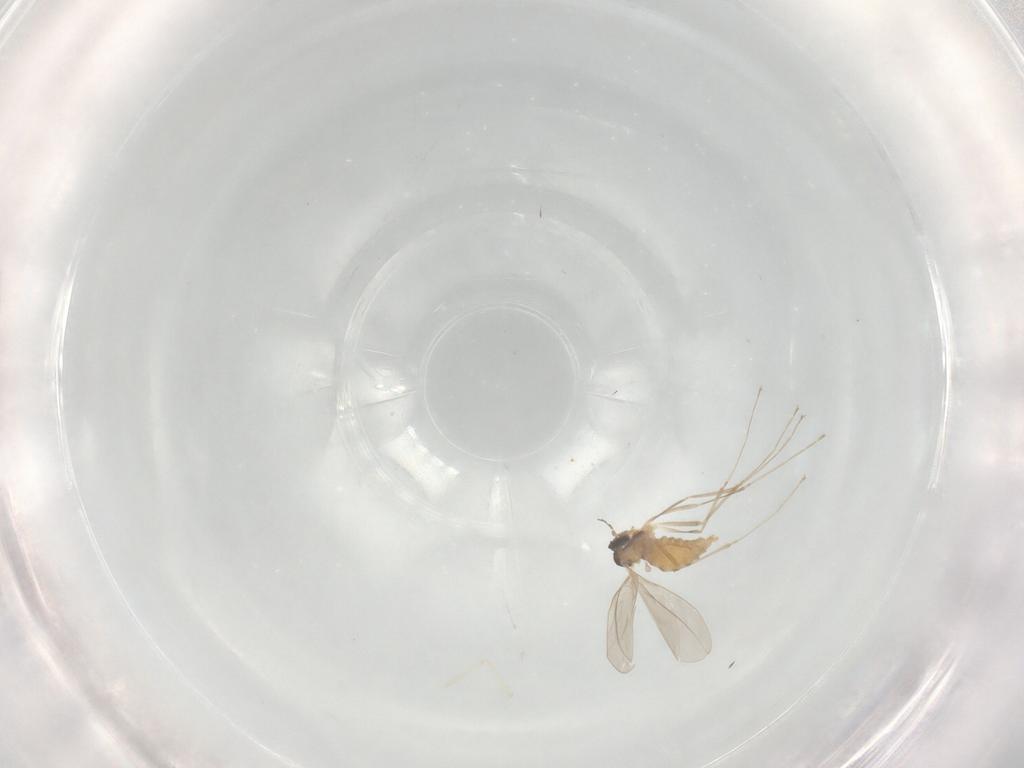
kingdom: Animalia
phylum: Arthropoda
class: Insecta
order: Diptera
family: Cecidomyiidae
